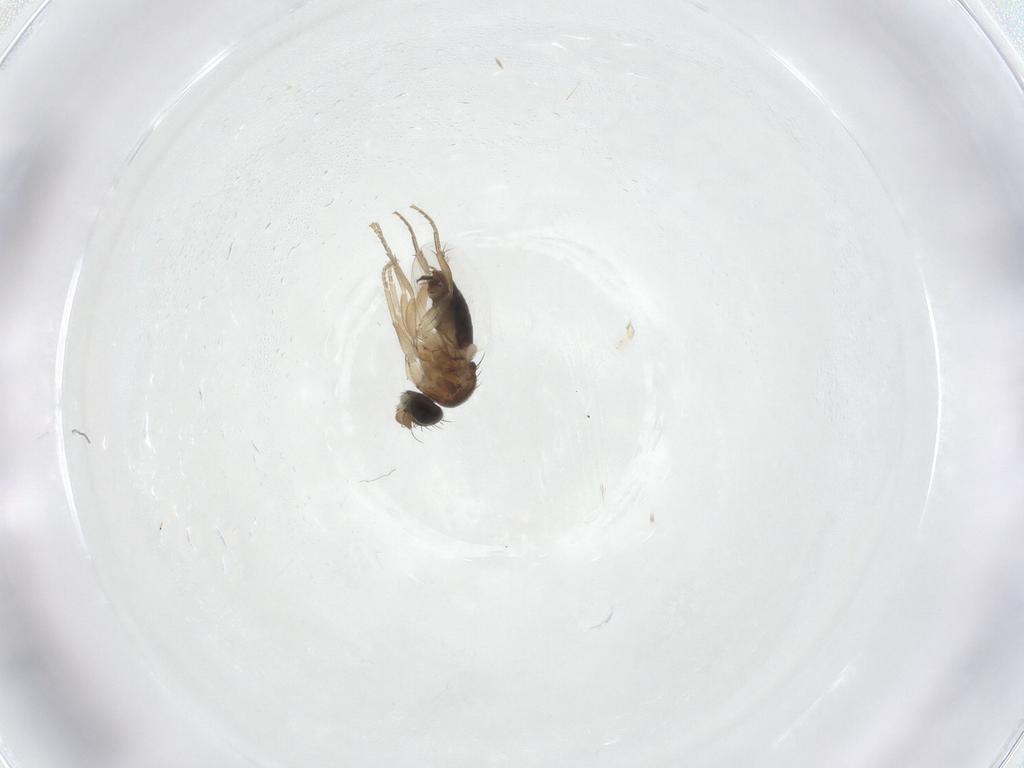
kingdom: Animalia
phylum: Arthropoda
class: Insecta
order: Diptera
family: Phoridae
